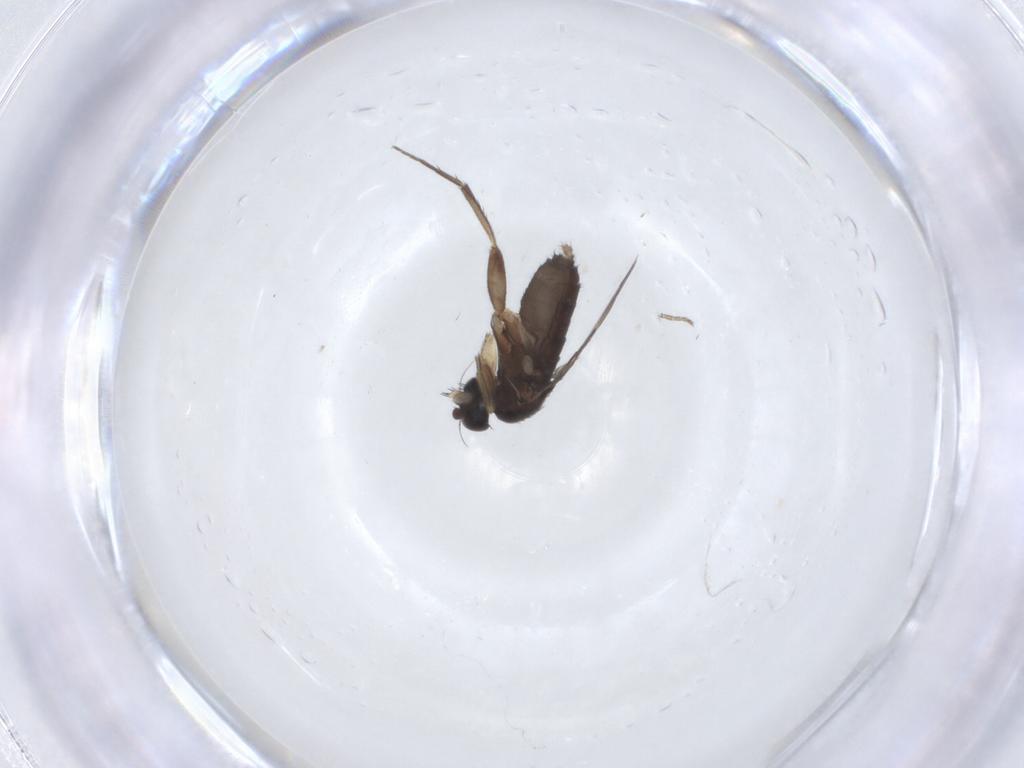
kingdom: Animalia
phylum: Arthropoda
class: Insecta
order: Diptera
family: Phoridae
